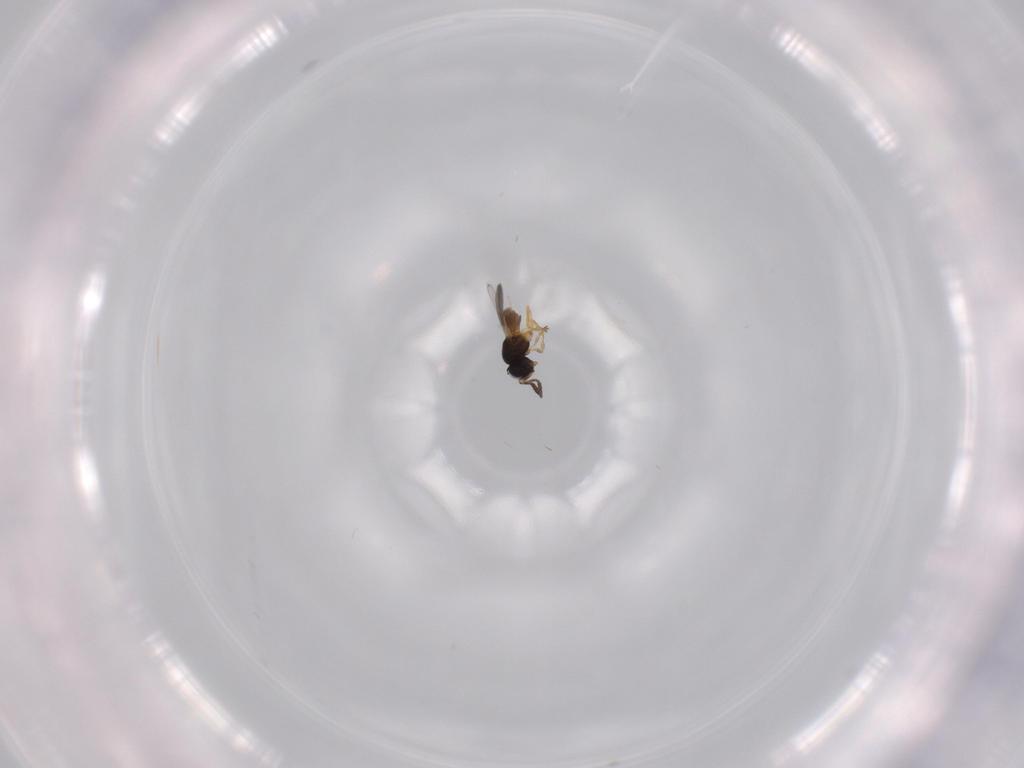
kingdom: Animalia
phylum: Arthropoda
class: Insecta
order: Hymenoptera
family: Scelionidae
